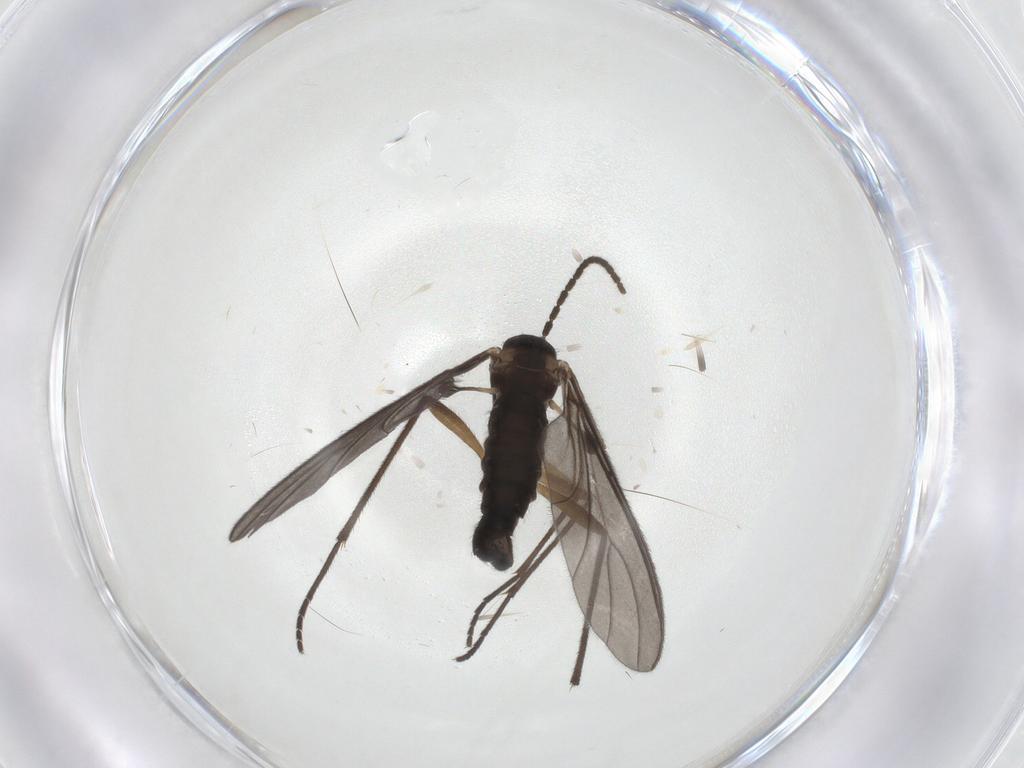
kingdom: Animalia
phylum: Arthropoda
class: Insecta
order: Diptera
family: Sciaridae
